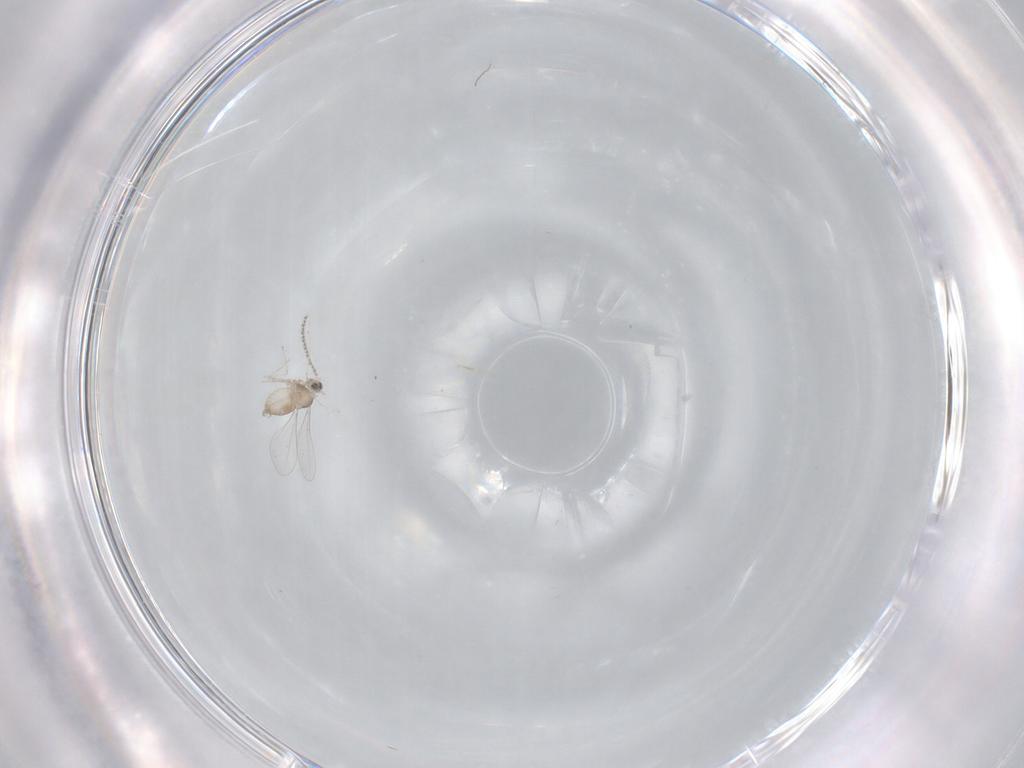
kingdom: Animalia
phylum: Arthropoda
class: Insecta
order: Diptera
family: Phoridae
